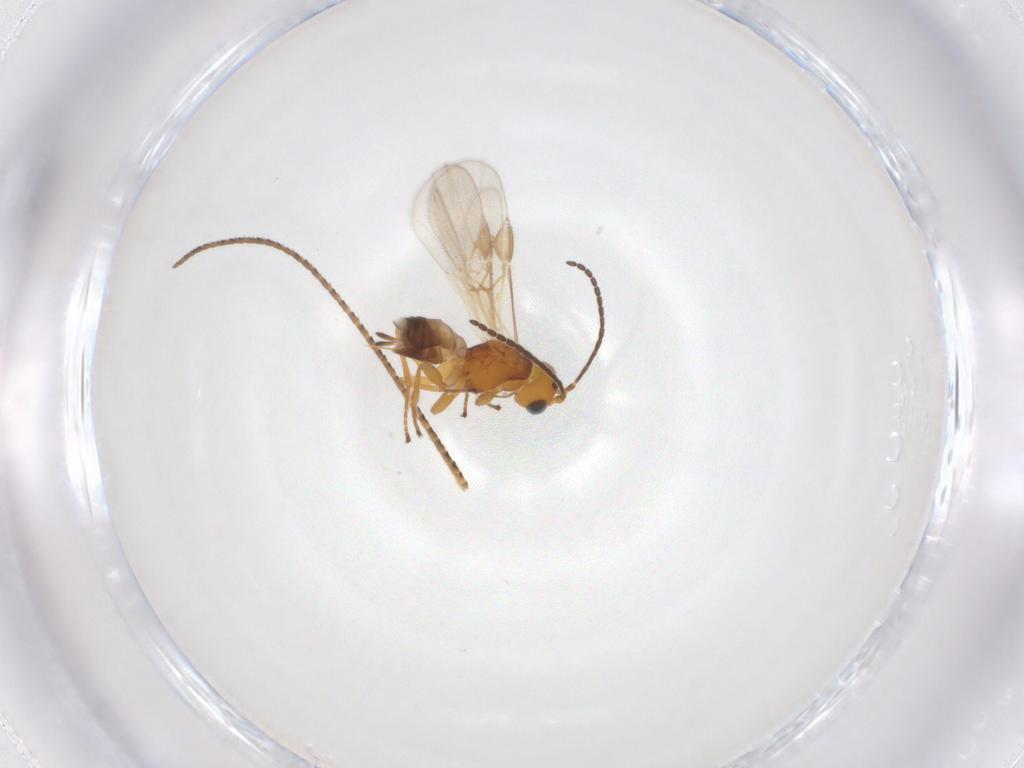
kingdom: Animalia
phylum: Arthropoda
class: Insecta
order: Hymenoptera
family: Braconidae
